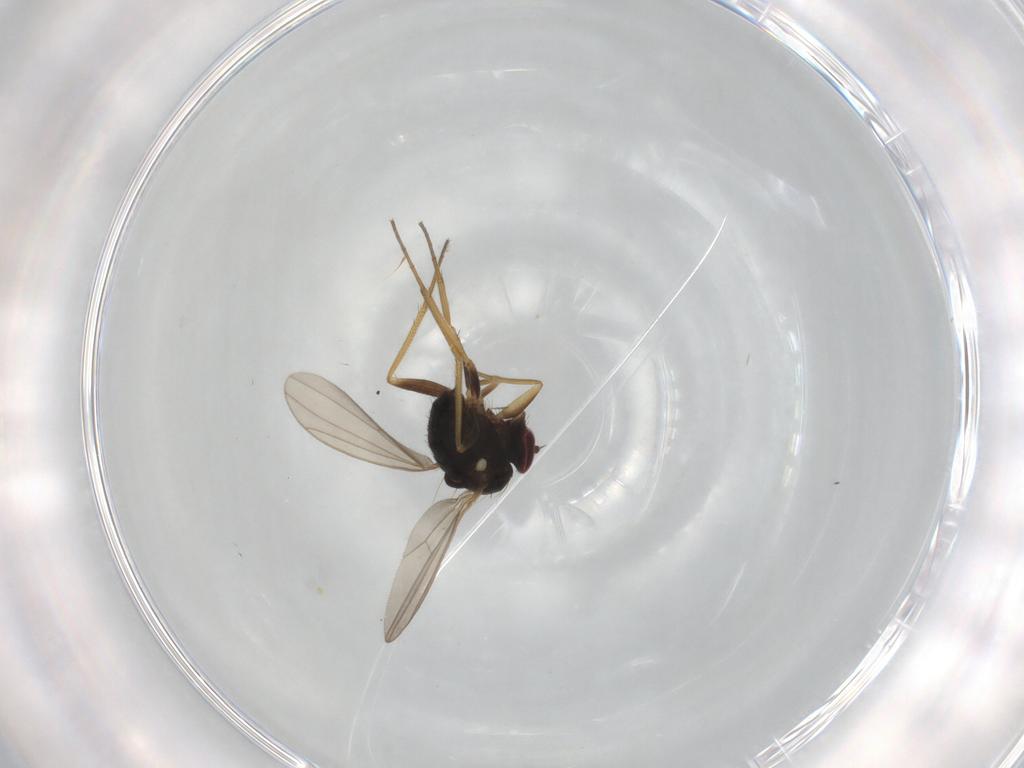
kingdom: Animalia
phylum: Arthropoda
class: Insecta
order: Diptera
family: Dolichopodidae
